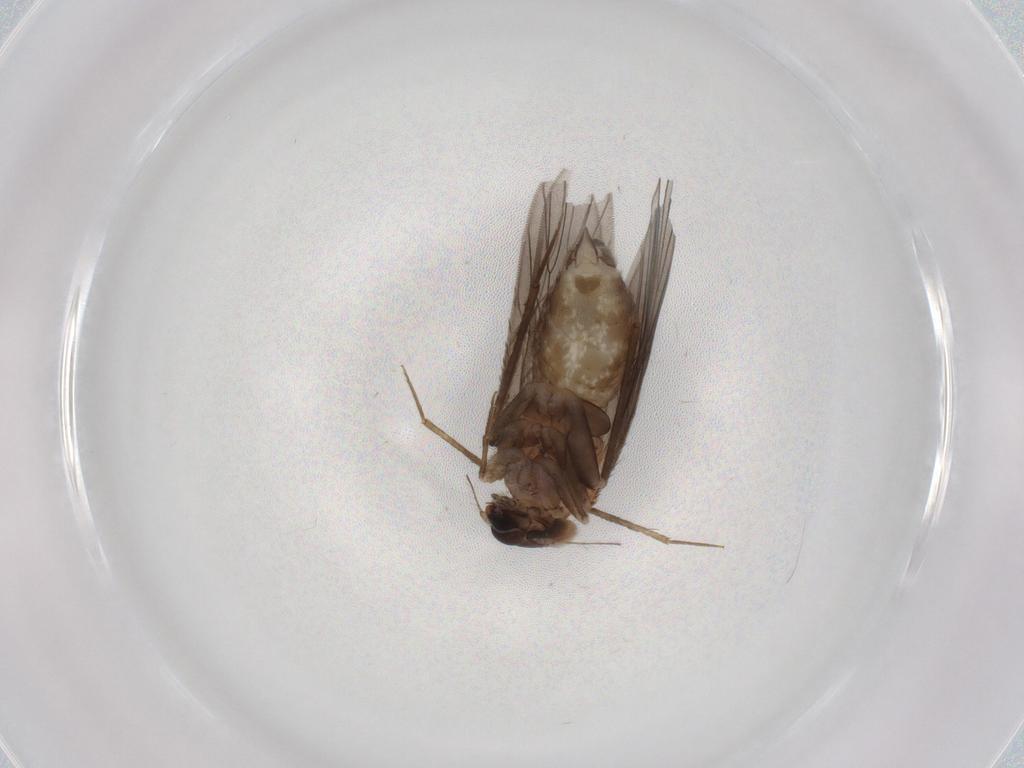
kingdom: Animalia
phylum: Arthropoda
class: Insecta
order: Psocodea
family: Lepidopsocidae
